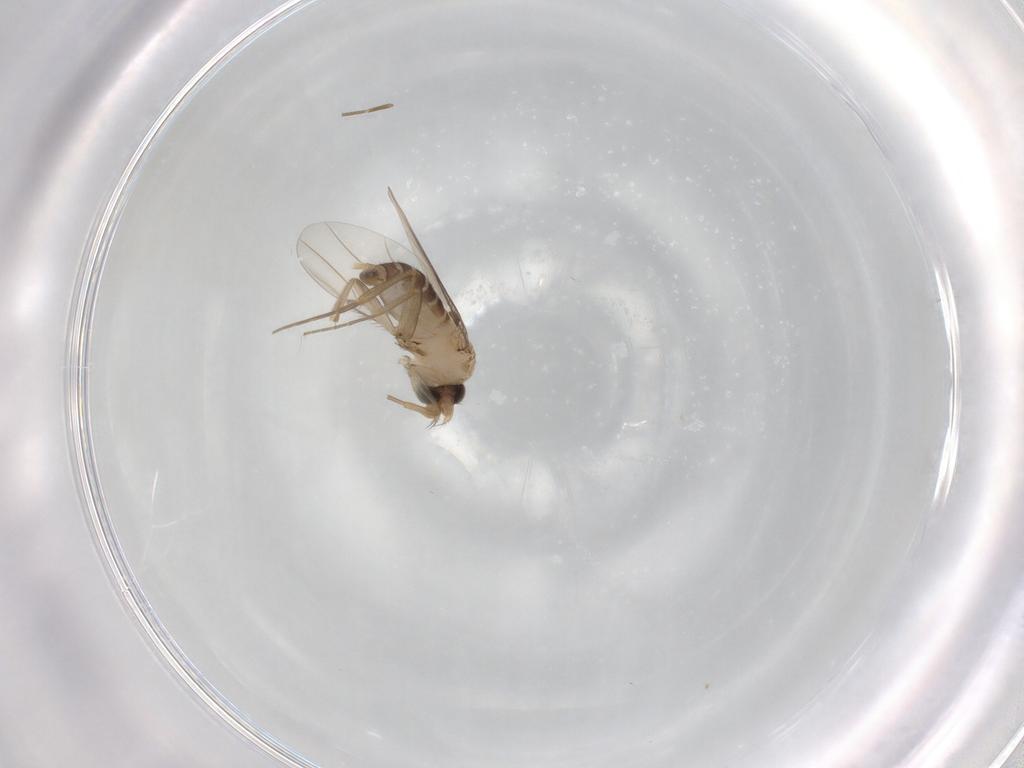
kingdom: Animalia
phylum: Arthropoda
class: Insecta
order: Diptera
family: Phoridae
